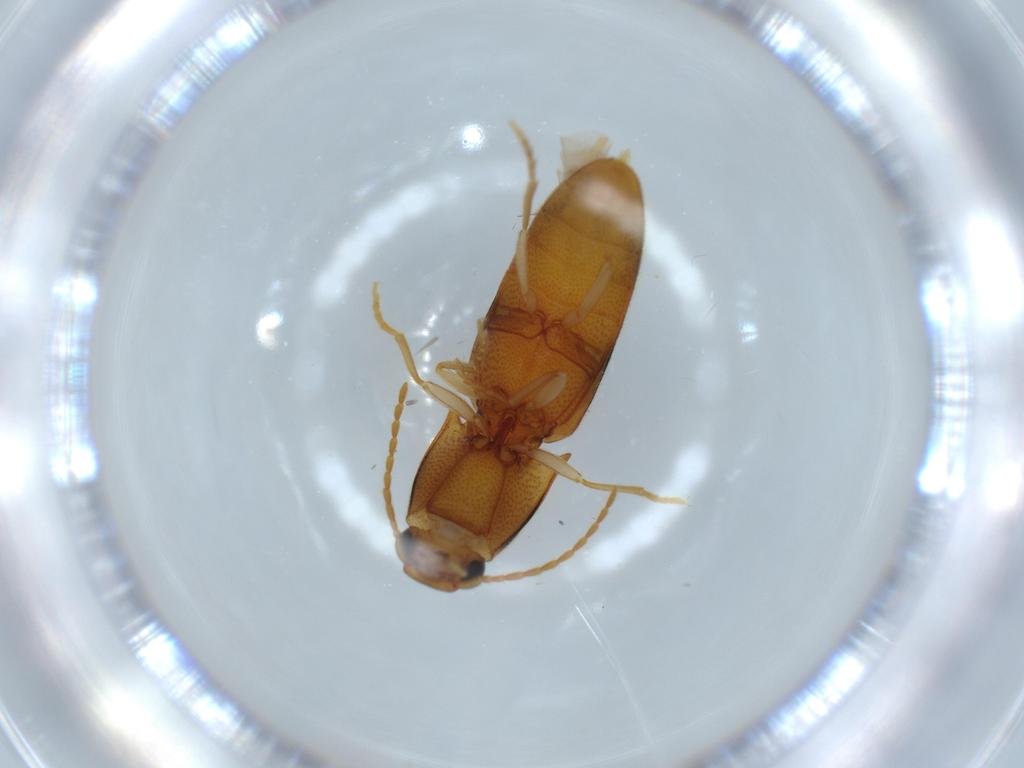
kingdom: Animalia
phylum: Arthropoda
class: Insecta
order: Coleoptera
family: Elateridae
